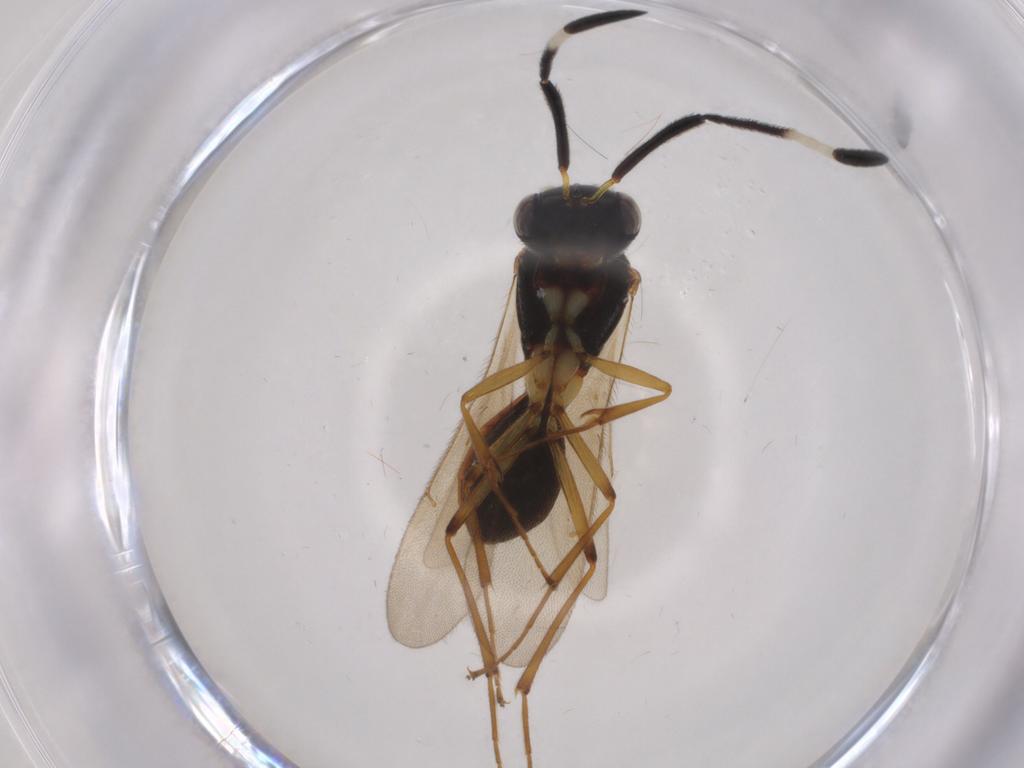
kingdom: Animalia
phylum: Arthropoda
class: Insecta
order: Hymenoptera
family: Scelionidae
